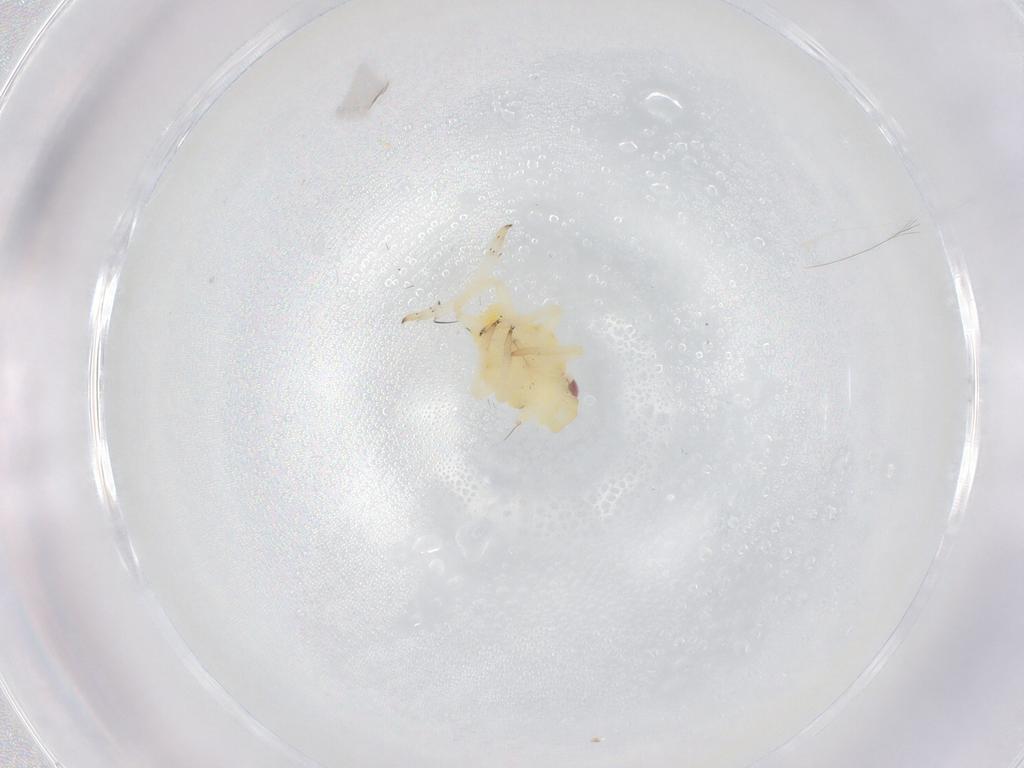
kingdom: Animalia
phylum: Arthropoda
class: Insecta
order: Hemiptera
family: Caliscelidae
